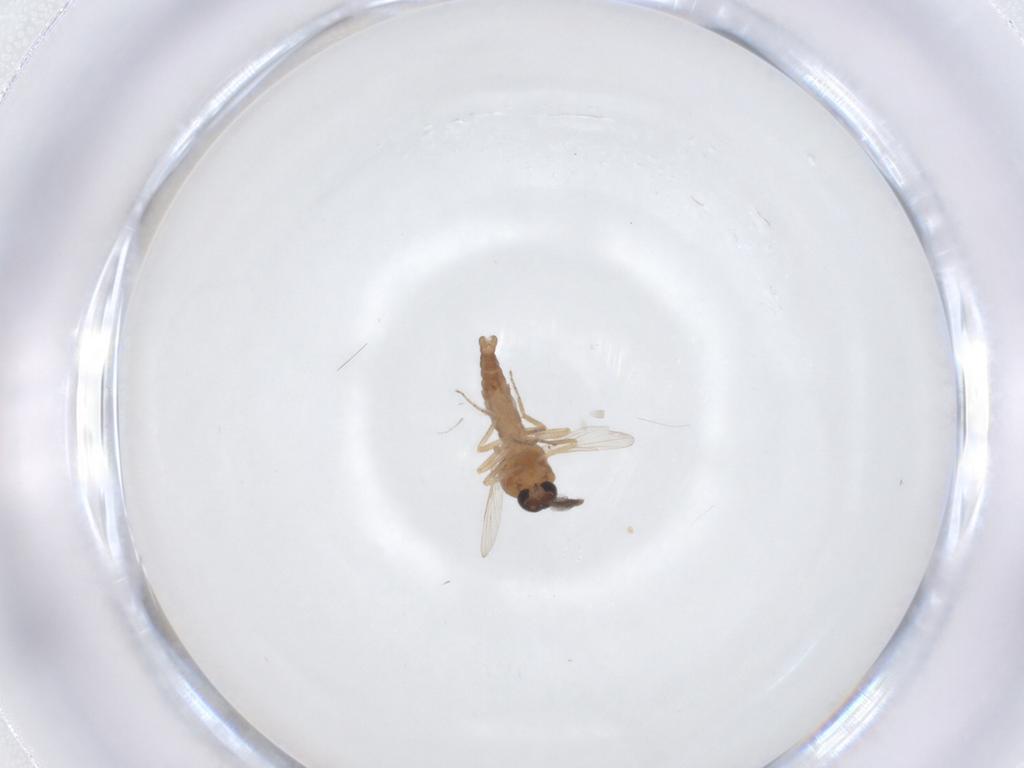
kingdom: Animalia
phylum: Arthropoda
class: Insecta
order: Diptera
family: Ceratopogonidae
